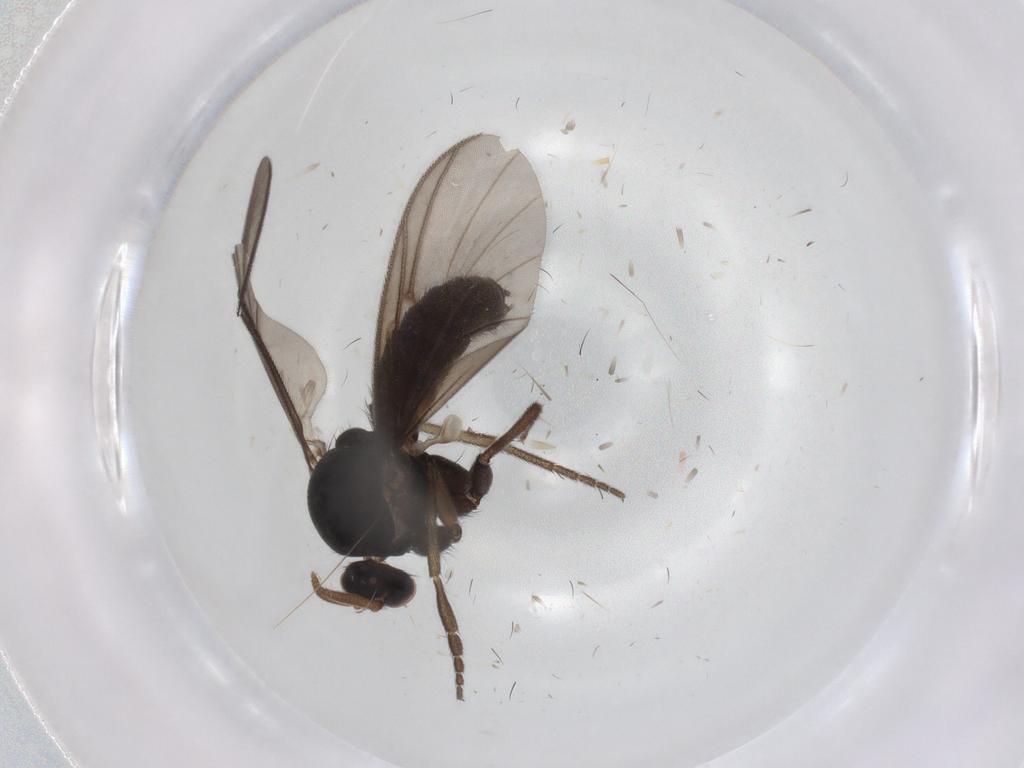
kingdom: Animalia
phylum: Arthropoda
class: Insecta
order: Diptera
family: Mycetophilidae
